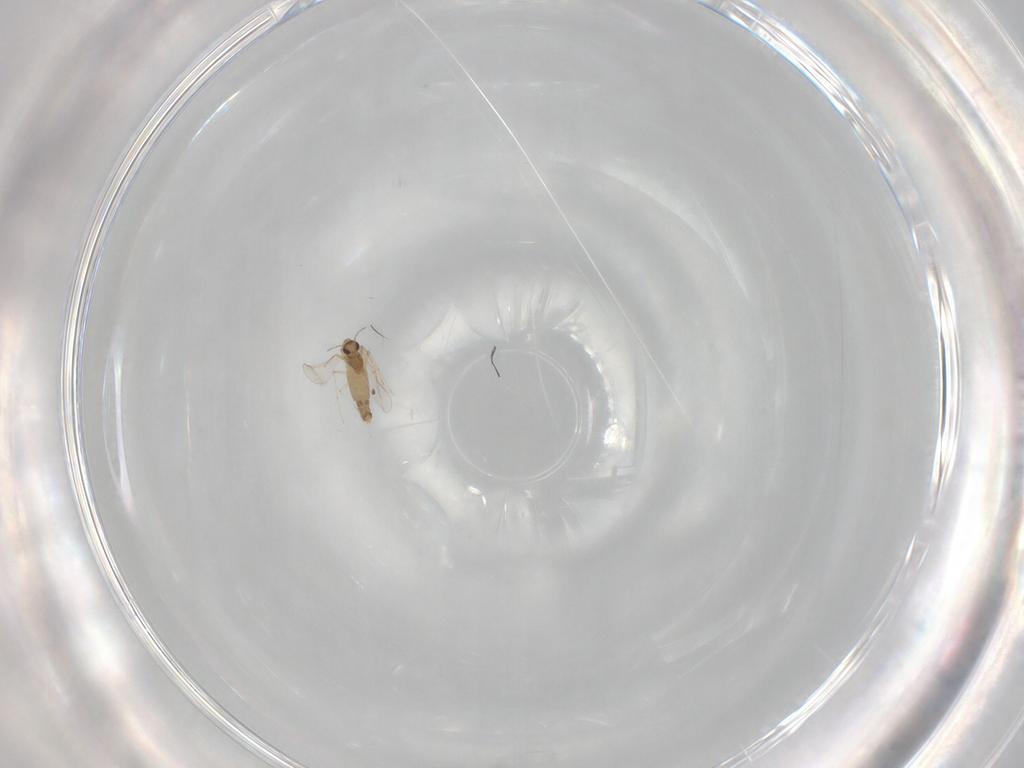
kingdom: Animalia
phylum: Arthropoda
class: Insecta
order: Diptera
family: Chironomidae
